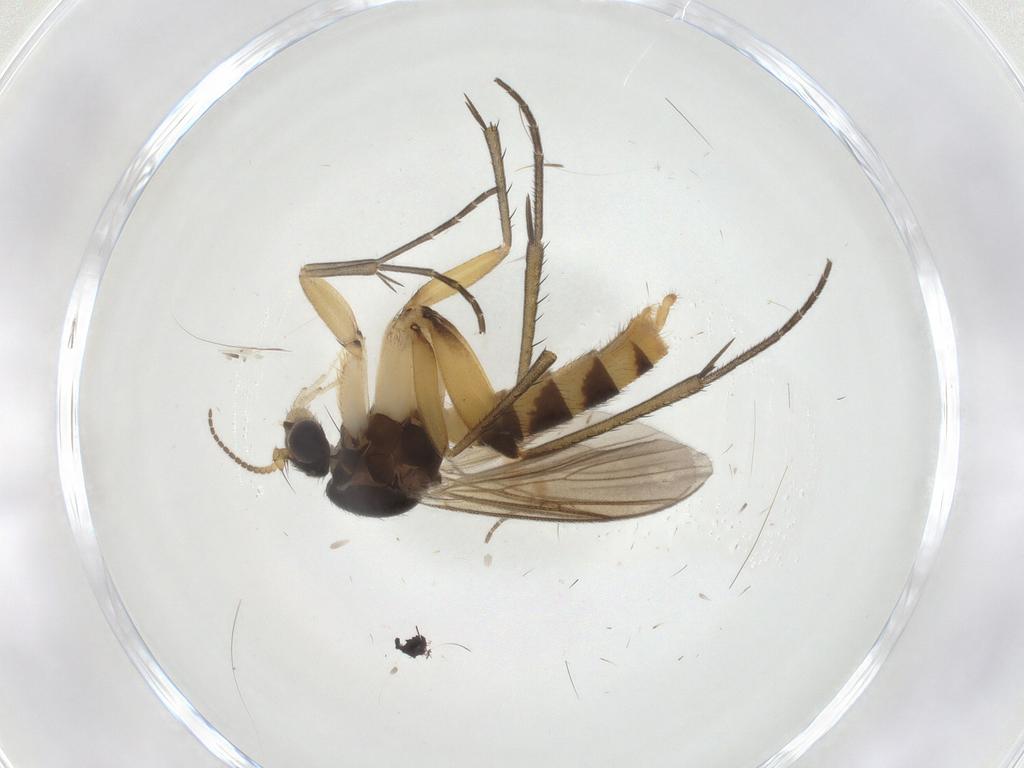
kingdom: Animalia
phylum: Arthropoda
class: Insecta
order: Diptera
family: Mycetophilidae
